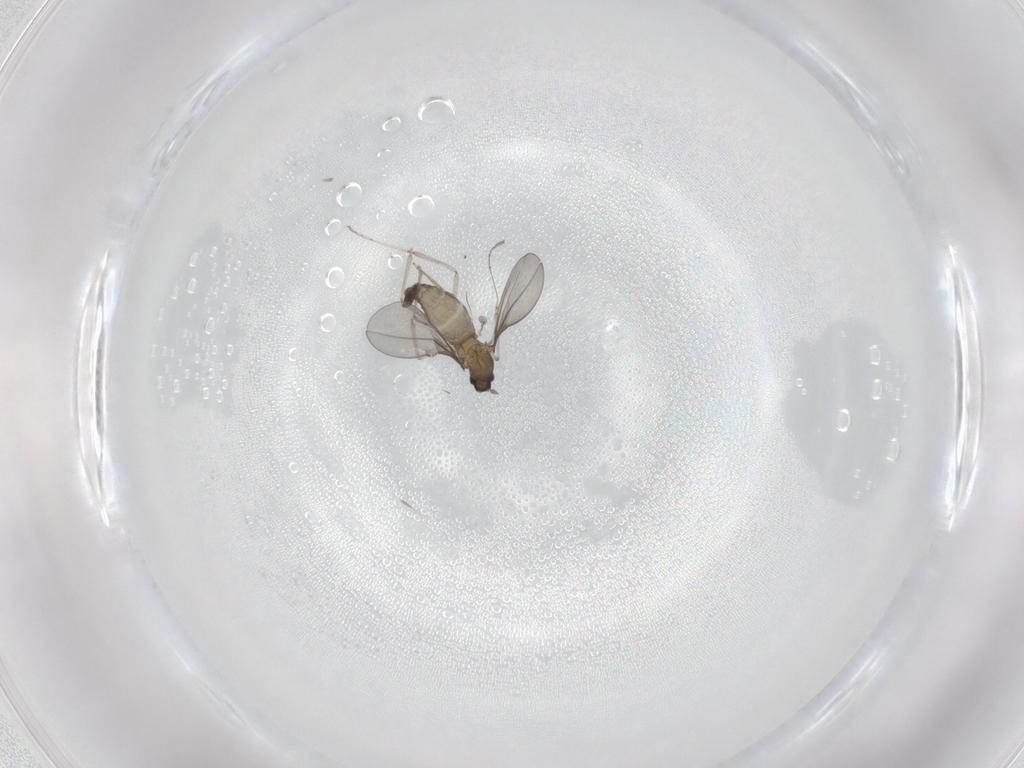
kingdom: Animalia
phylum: Arthropoda
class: Insecta
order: Diptera
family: Cecidomyiidae
